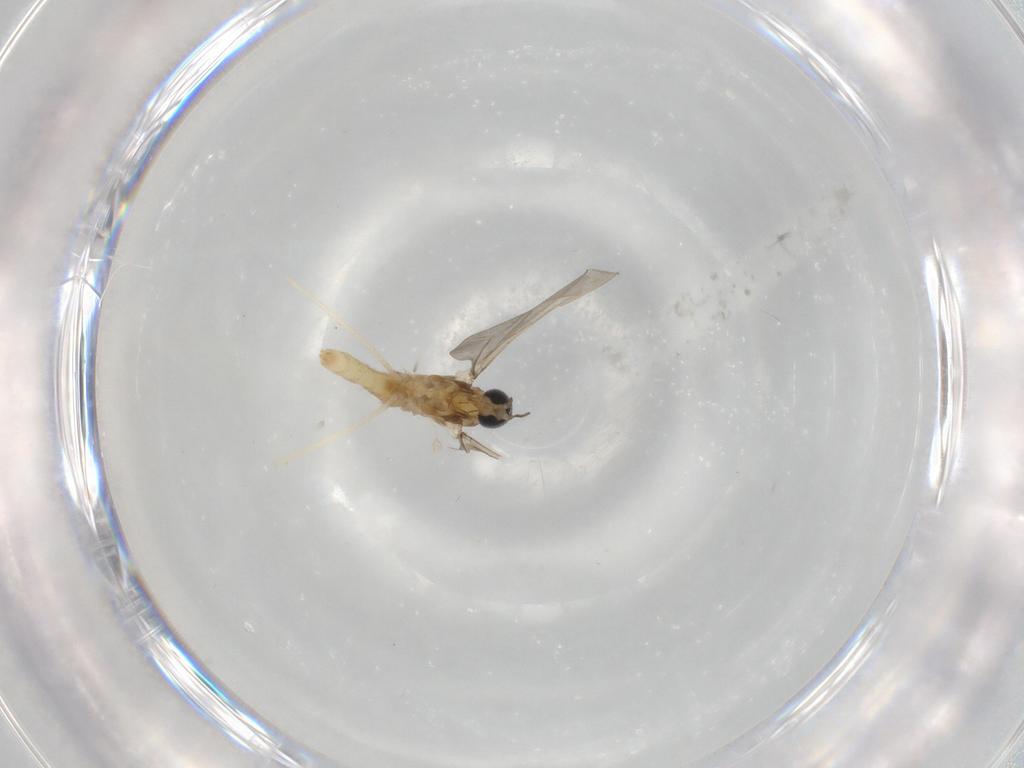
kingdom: Animalia
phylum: Arthropoda
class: Insecta
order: Diptera
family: Cecidomyiidae
